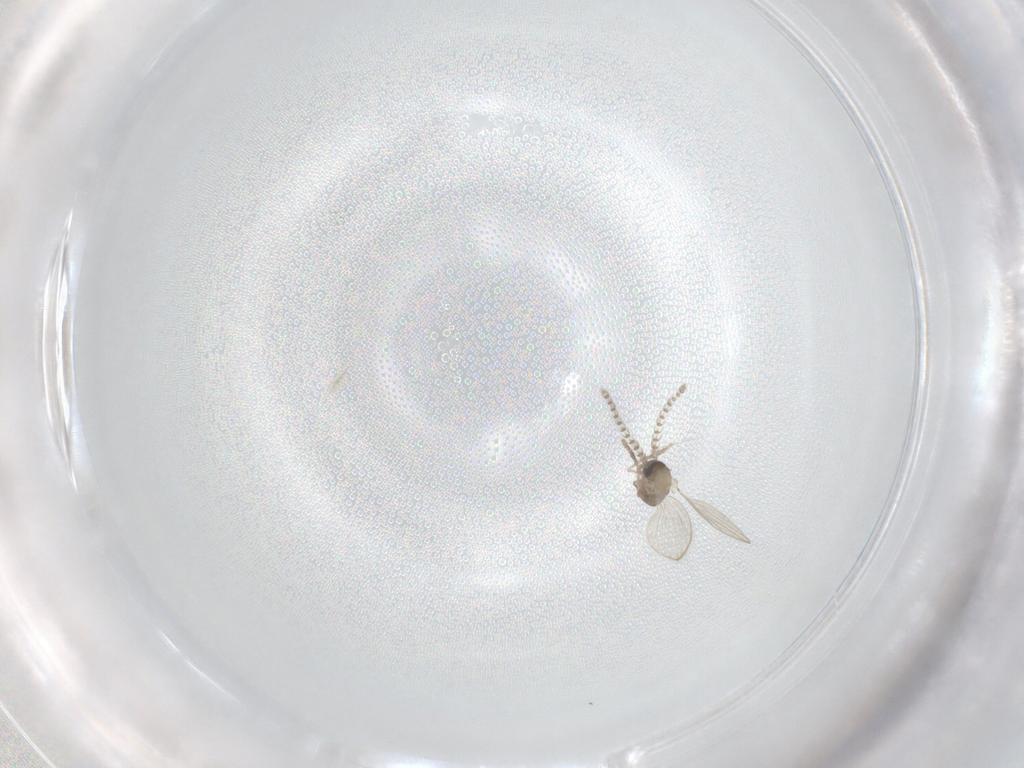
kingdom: Animalia
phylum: Arthropoda
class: Insecta
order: Diptera
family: Psychodidae
